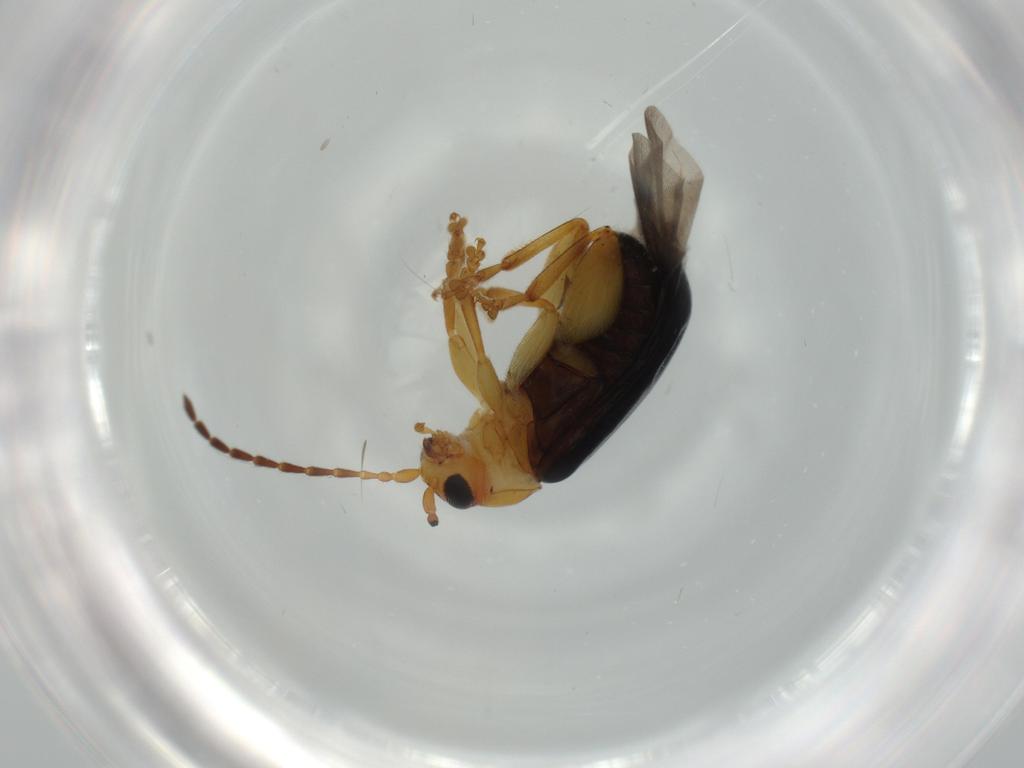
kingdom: Animalia
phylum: Arthropoda
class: Insecta
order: Coleoptera
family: Chrysomelidae
